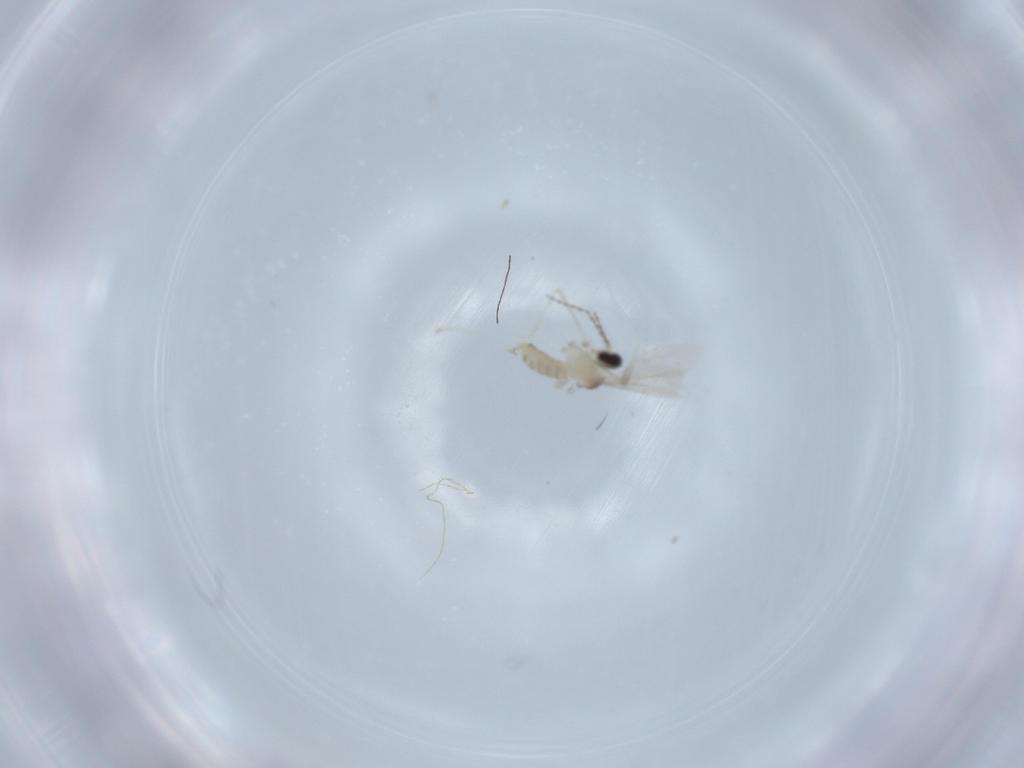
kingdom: Animalia
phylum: Arthropoda
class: Insecta
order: Diptera
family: Cecidomyiidae
